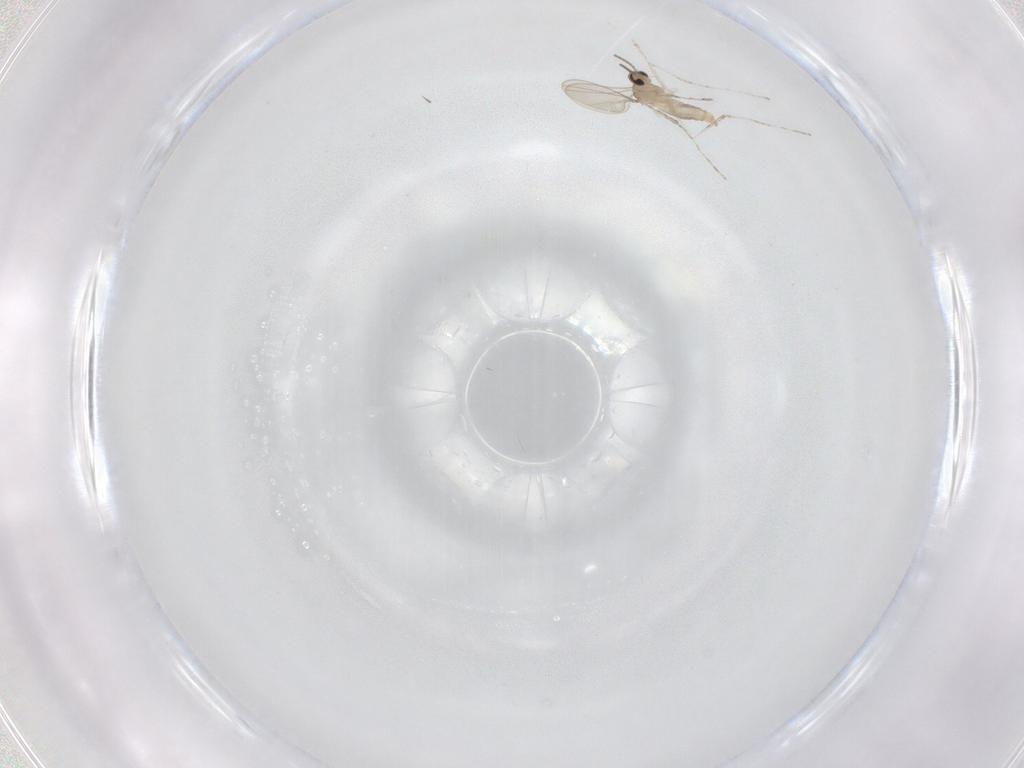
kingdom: Animalia
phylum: Arthropoda
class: Insecta
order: Diptera
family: Cecidomyiidae
